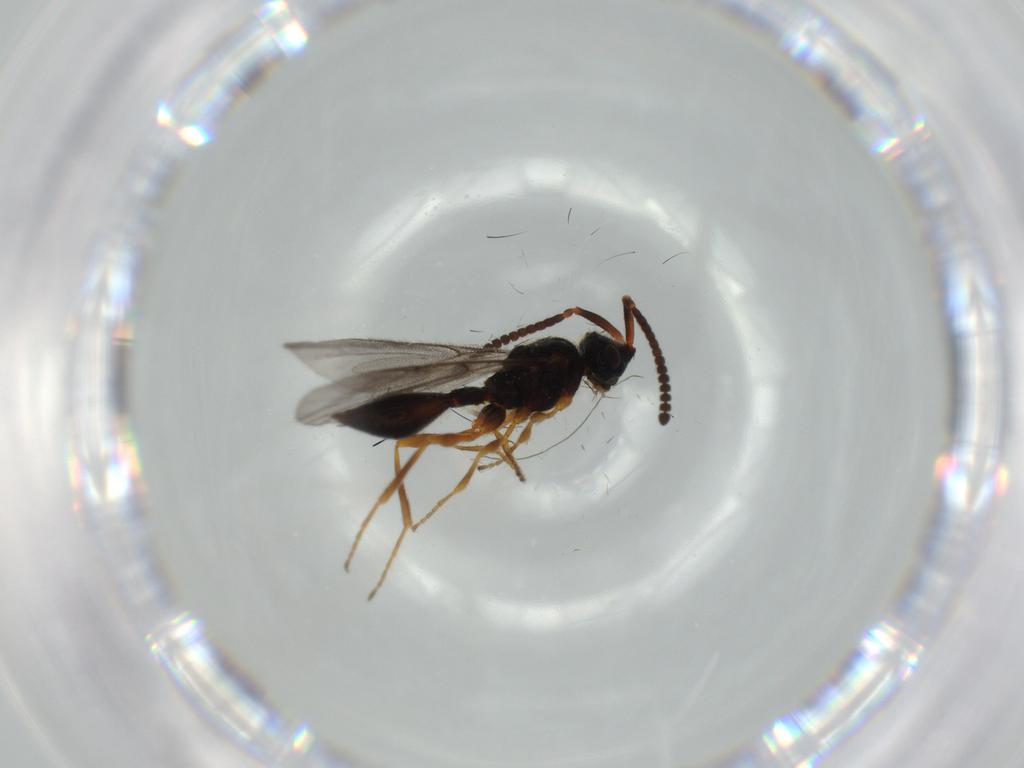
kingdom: Animalia
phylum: Arthropoda
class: Insecta
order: Hymenoptera
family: Diapriidae
